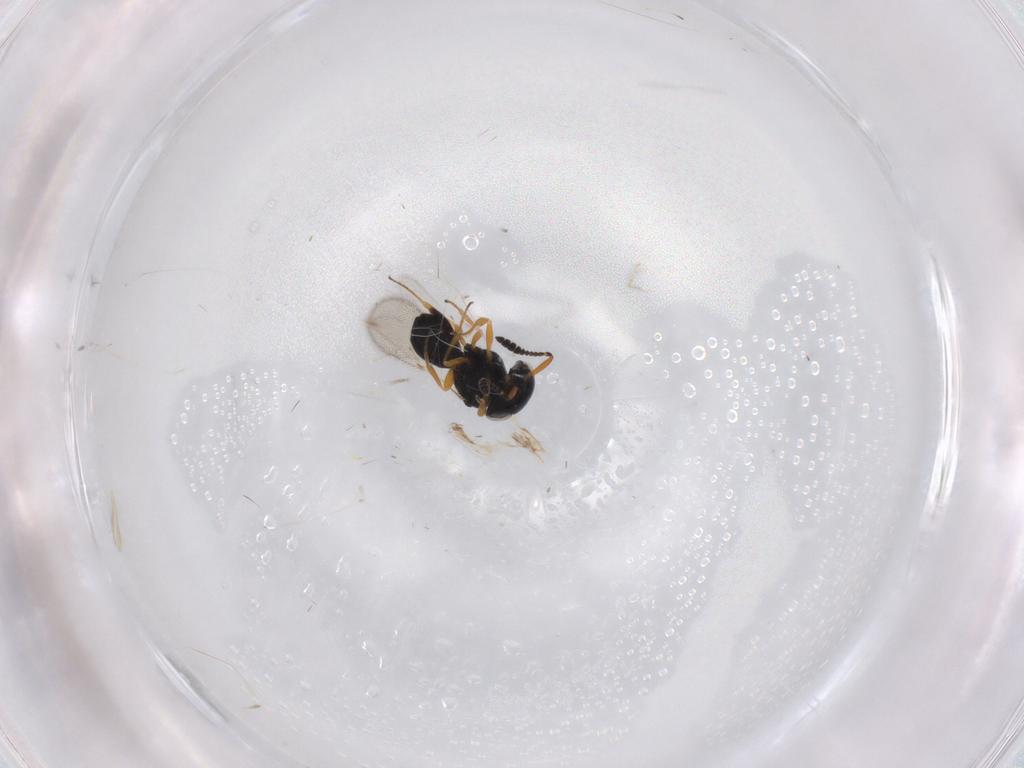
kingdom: Animalia
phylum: Arthropoda
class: Insecta
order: Hymenoptera
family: Scelionidae
